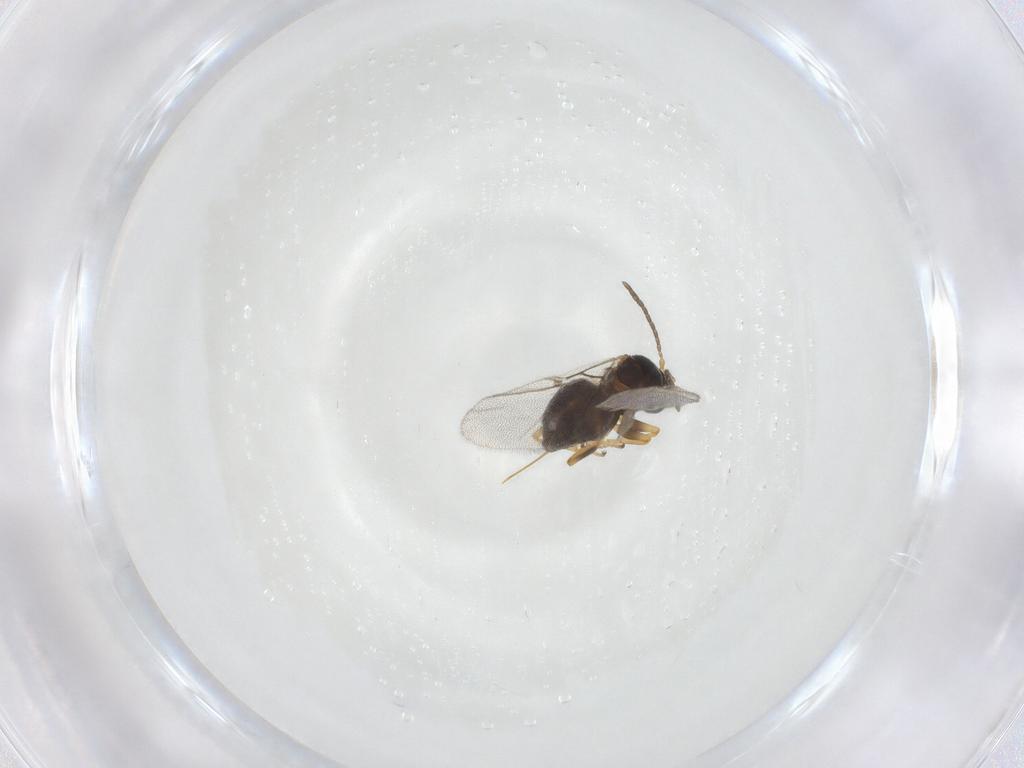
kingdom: Animalia
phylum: Arthropoda
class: Insecta
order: Hymenoptera
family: Cynipidae
